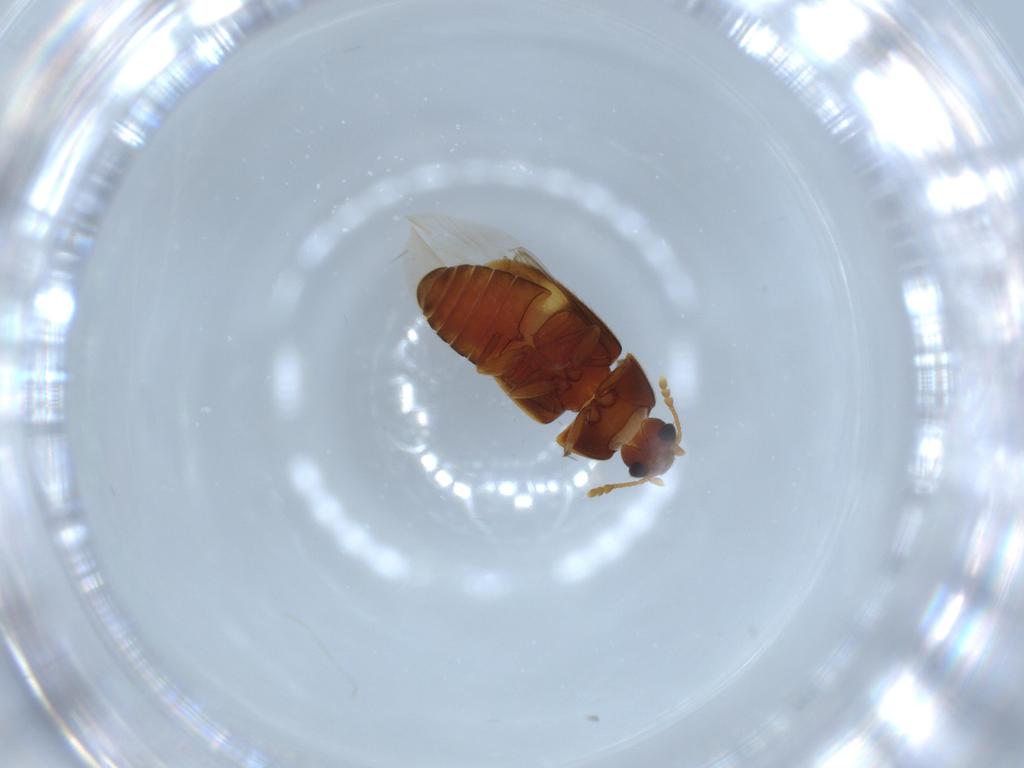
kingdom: Animalia
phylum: Arthropoda
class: Insecta
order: Coleoptera
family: Mycetophagidae
